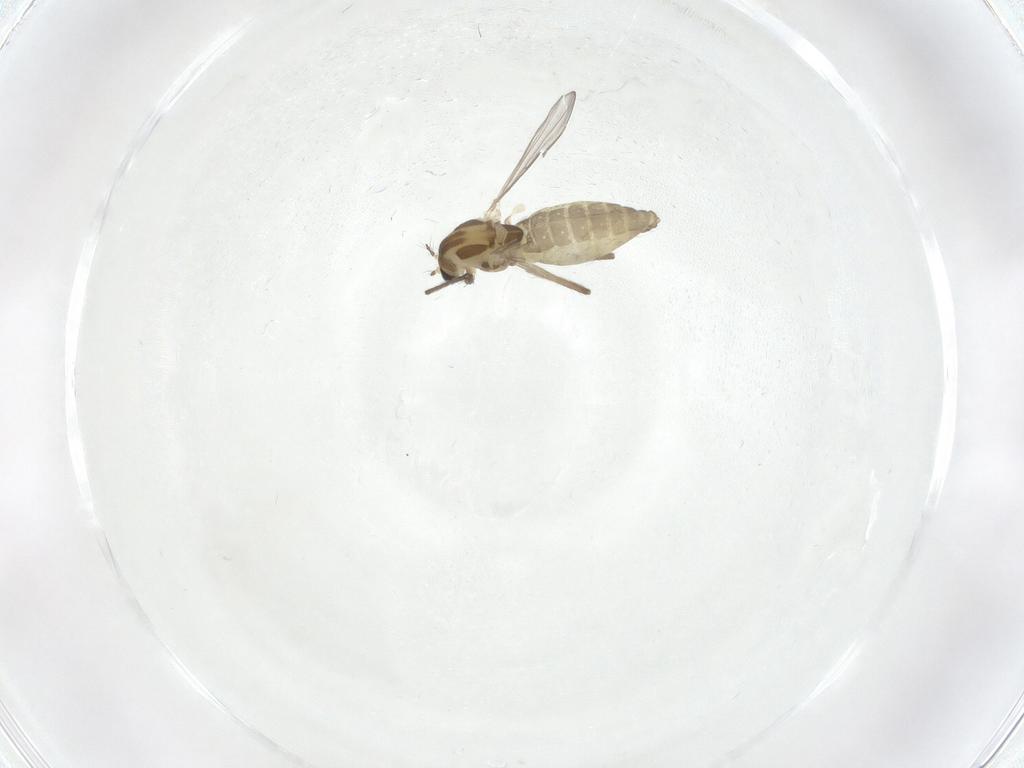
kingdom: Animalia
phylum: Arthropoda
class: Insecta
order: Diptera
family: Chironomidae
